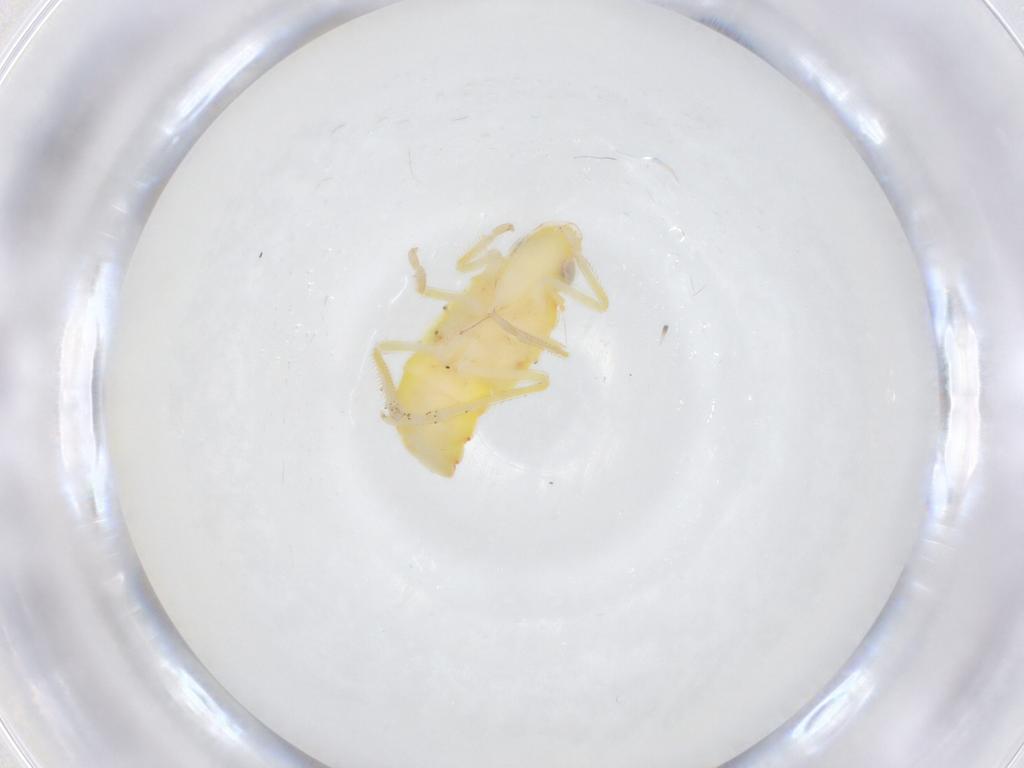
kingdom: Animalia
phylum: Arthropoda
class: Insecta
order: Hemiptera
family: Tropiduchidae
